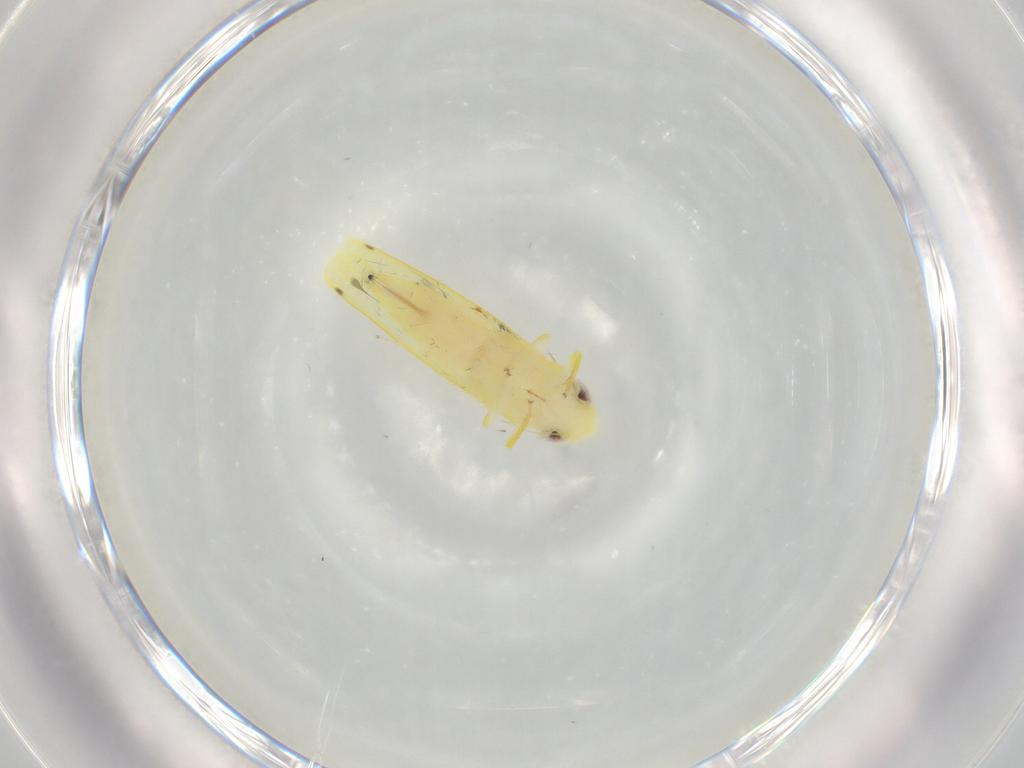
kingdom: Animalia
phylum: Arthropoda
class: Insecta
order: Hemiptera
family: Cicadellidae
